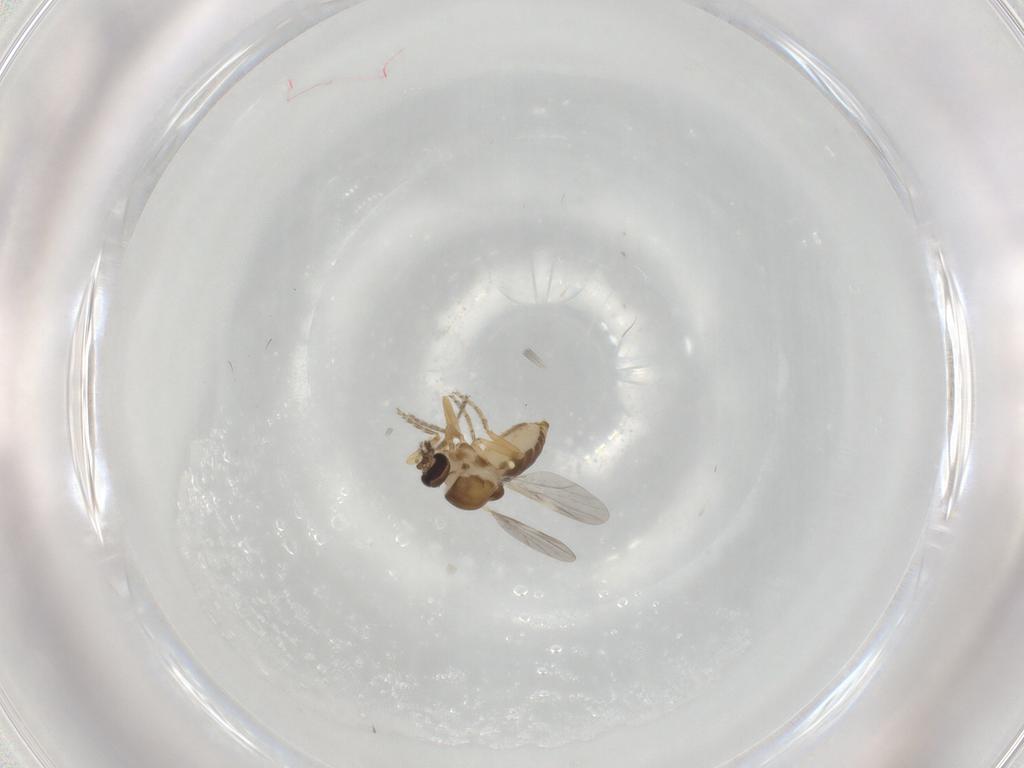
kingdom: Animalia
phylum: Arthropoda
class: Insecta
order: Diptera
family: Ceratopogonidae
